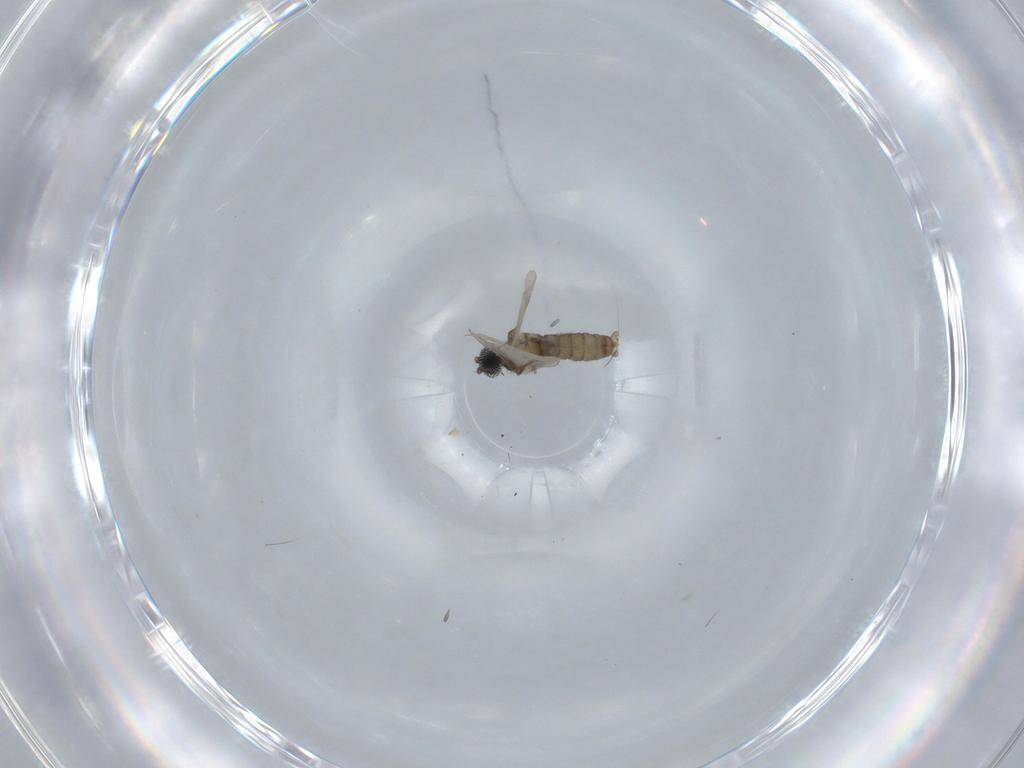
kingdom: Animalia
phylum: Arthropoda
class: Insecta
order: Diptera
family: Cecidomyiidae
